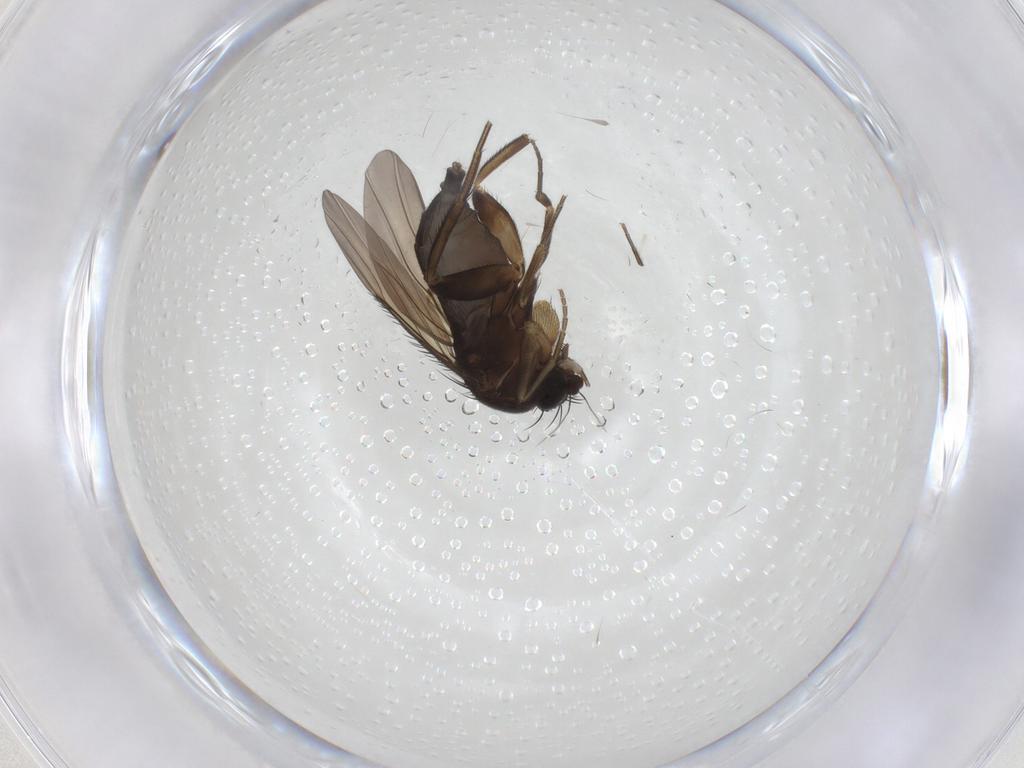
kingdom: Animalia
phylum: Arthropoda
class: Insecta
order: Diptera
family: Phoridae
